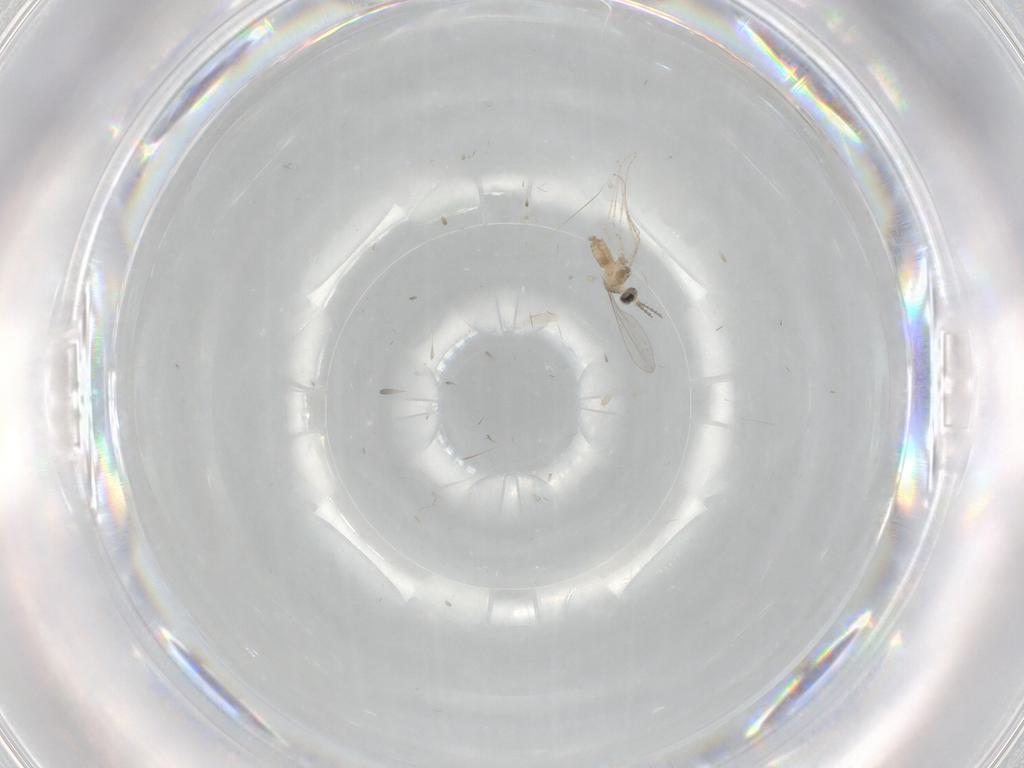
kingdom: Animalia
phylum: Arthropoda
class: Insecta
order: Diptera
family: Cecidomyiidae
